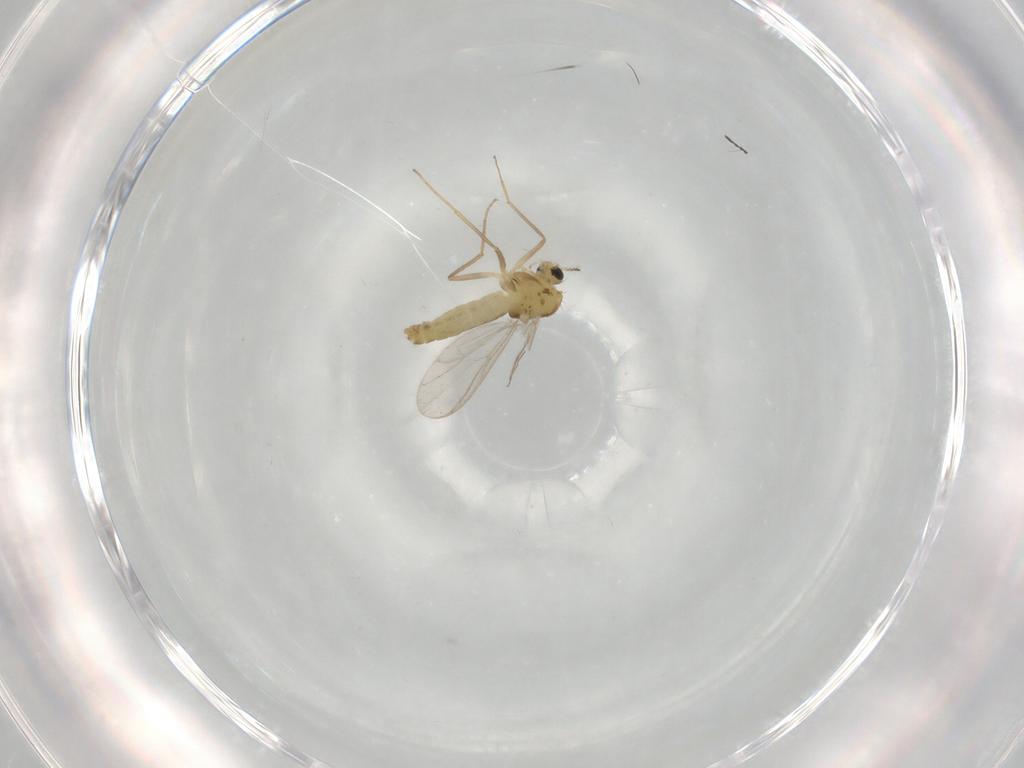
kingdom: Animalia
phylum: Arthropoda
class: Insecta
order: Diptera
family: Chironomidae
